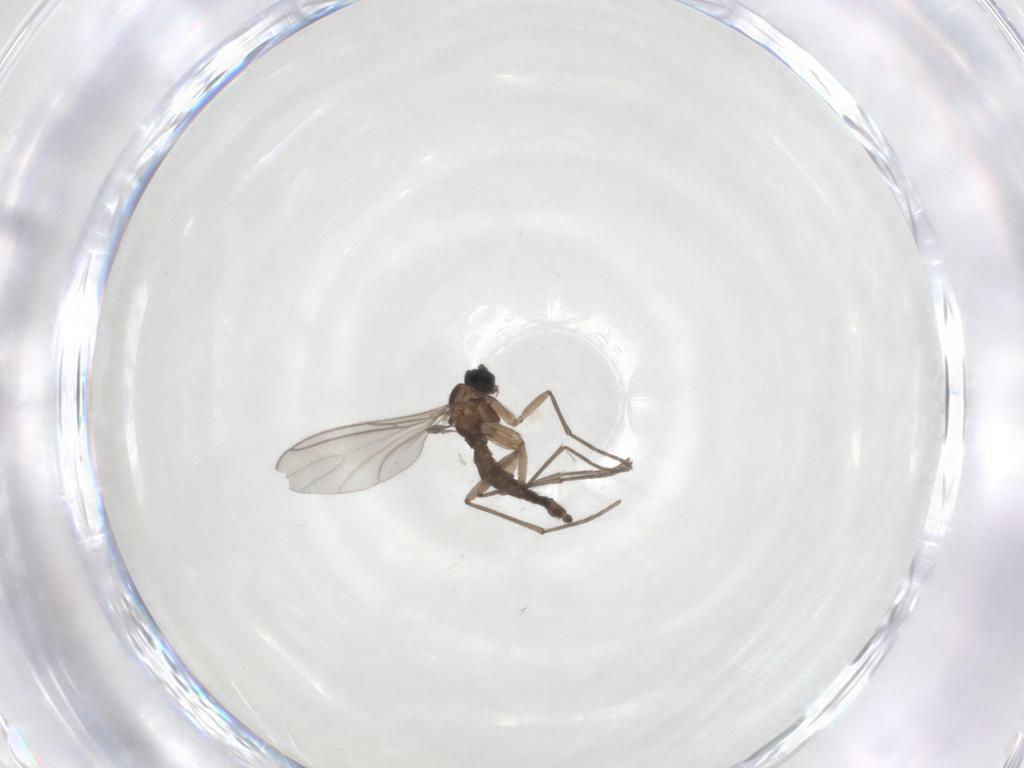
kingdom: Animalia
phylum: Arthropoda
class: Insecta
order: Diptera
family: Sciaridae
